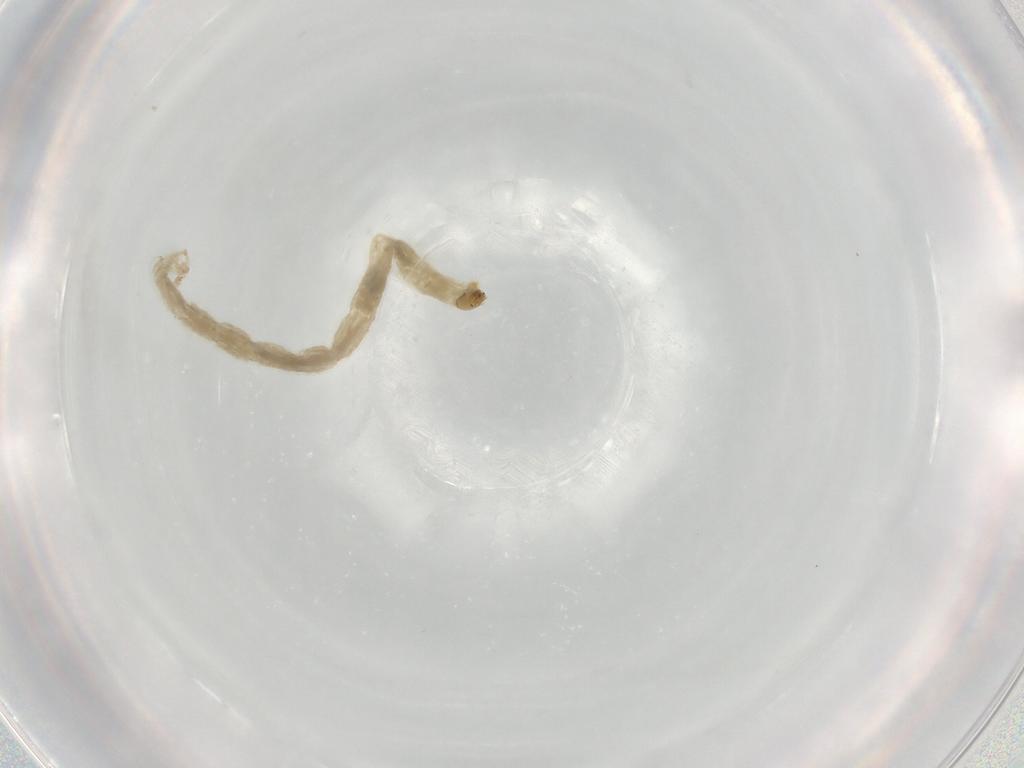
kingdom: Animalia
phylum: Arthropoda
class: Insecta
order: Diptera
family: Chironomidae
